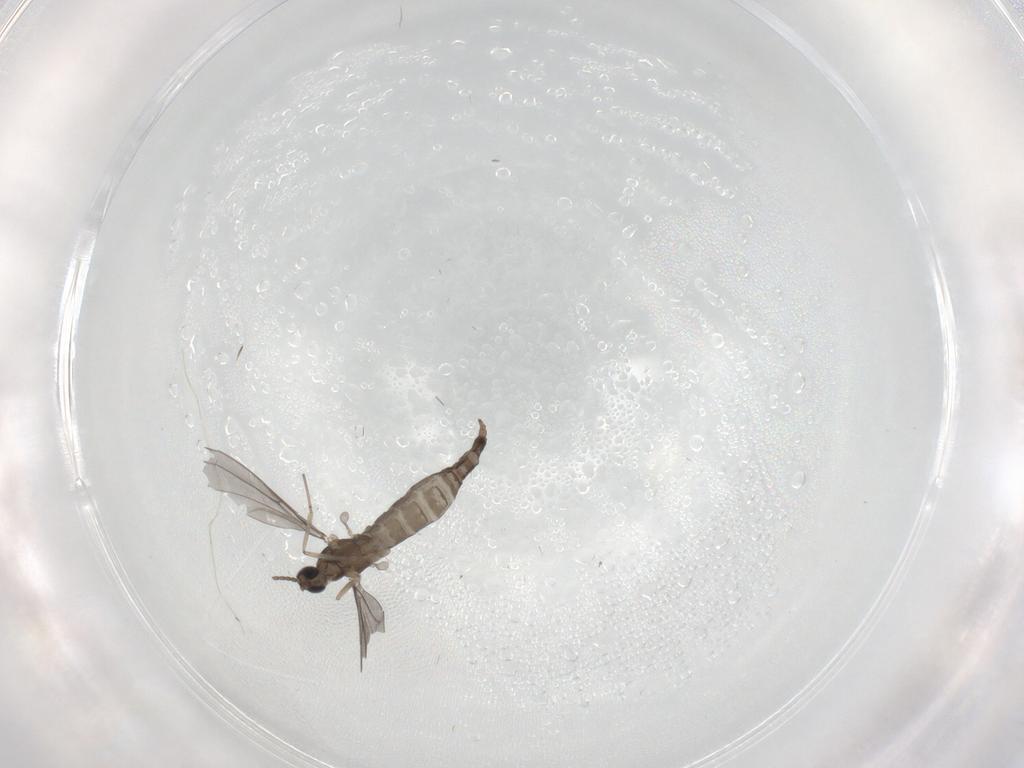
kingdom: Animalia
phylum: Arthropoda
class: Insecta
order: Diptera
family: Cecidomyiidae
